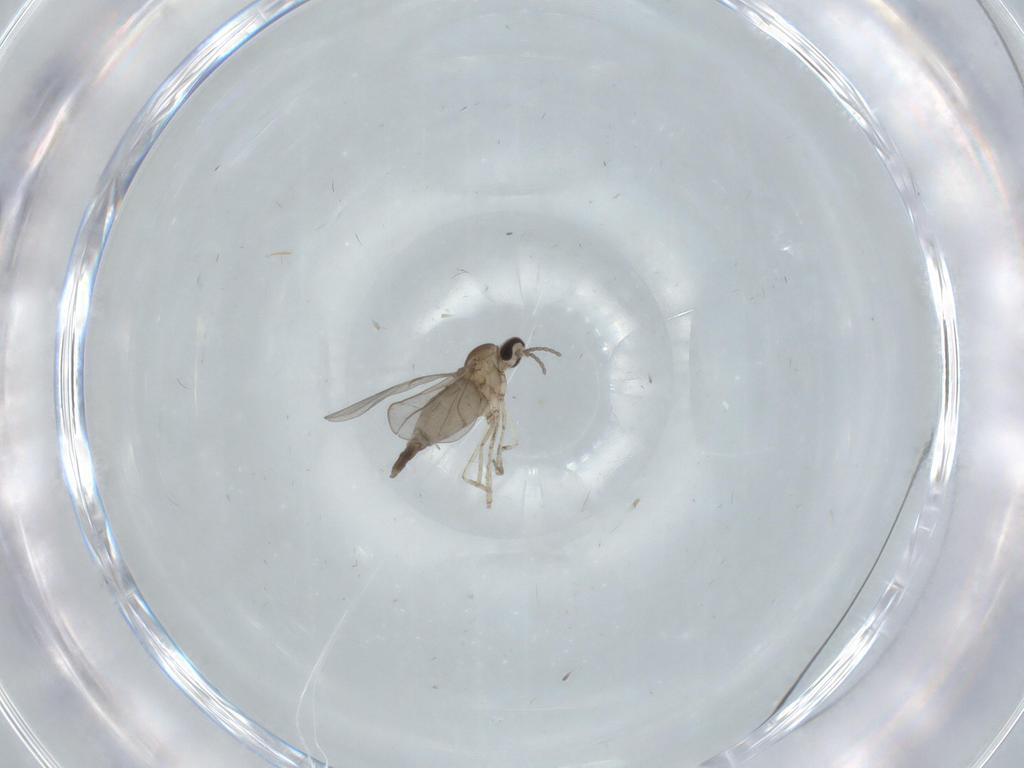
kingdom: Animalia
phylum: Arthropoda
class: Insecta
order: Diptera
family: Cecidomyiidae
